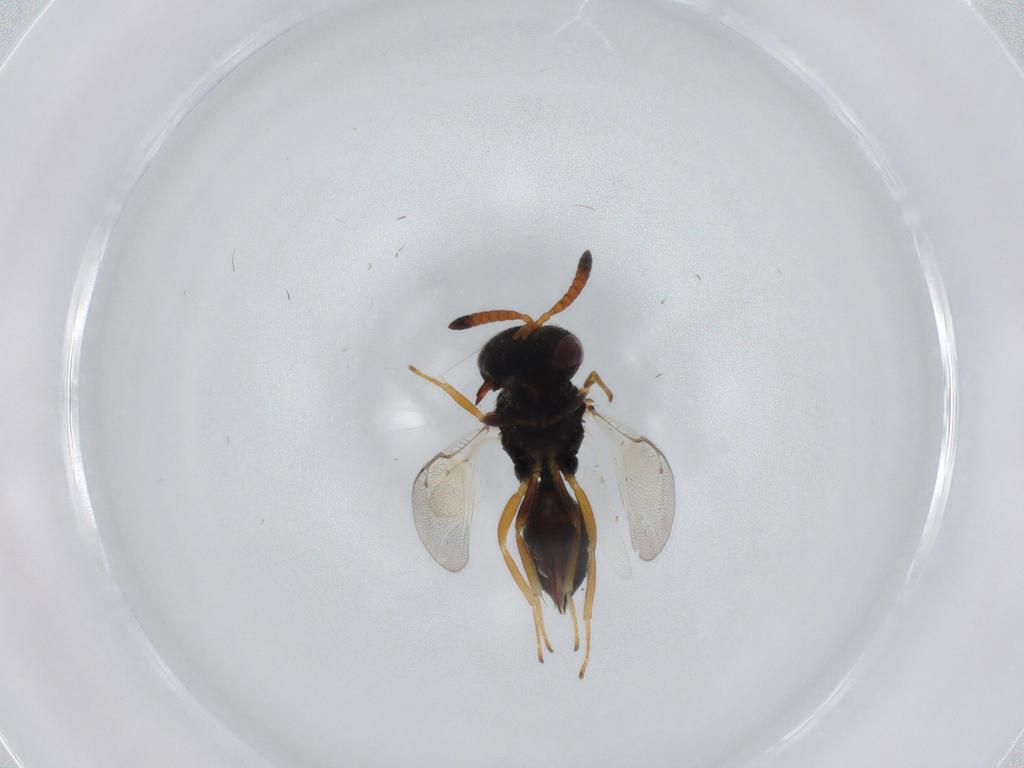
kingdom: Animalia
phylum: Arthropoda
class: Insecta
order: Hymenoptera
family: Pteromalidae
